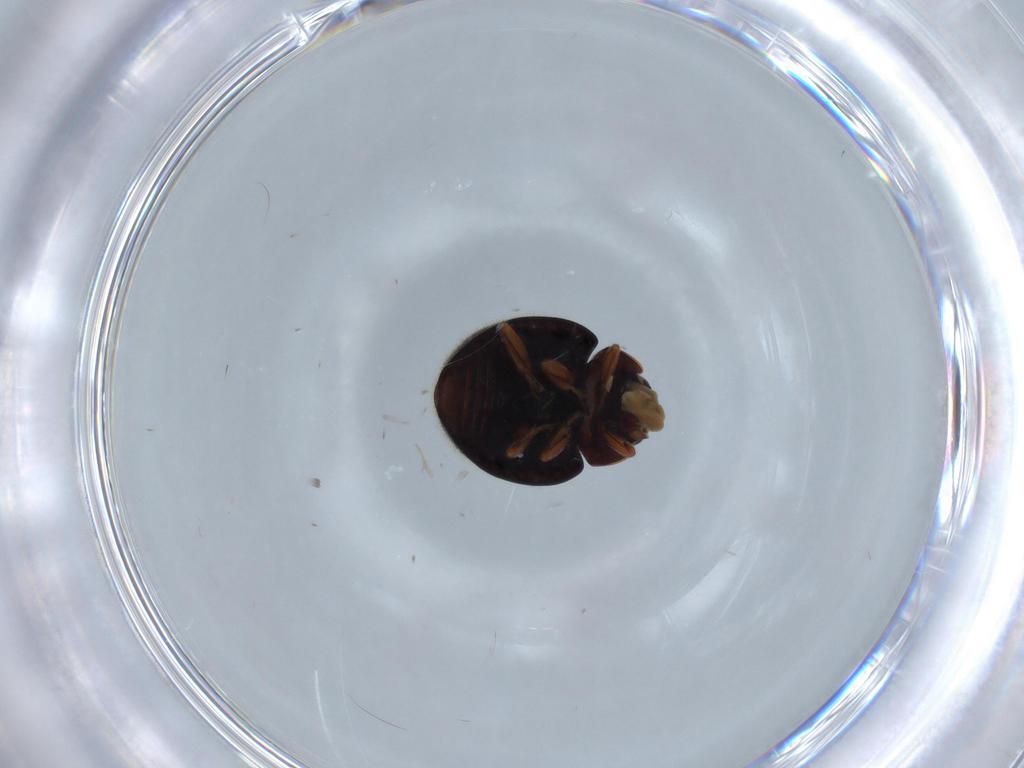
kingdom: Animalia
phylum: Arthropoda
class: Insecta
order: Coleoptera
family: Coccinellidae
